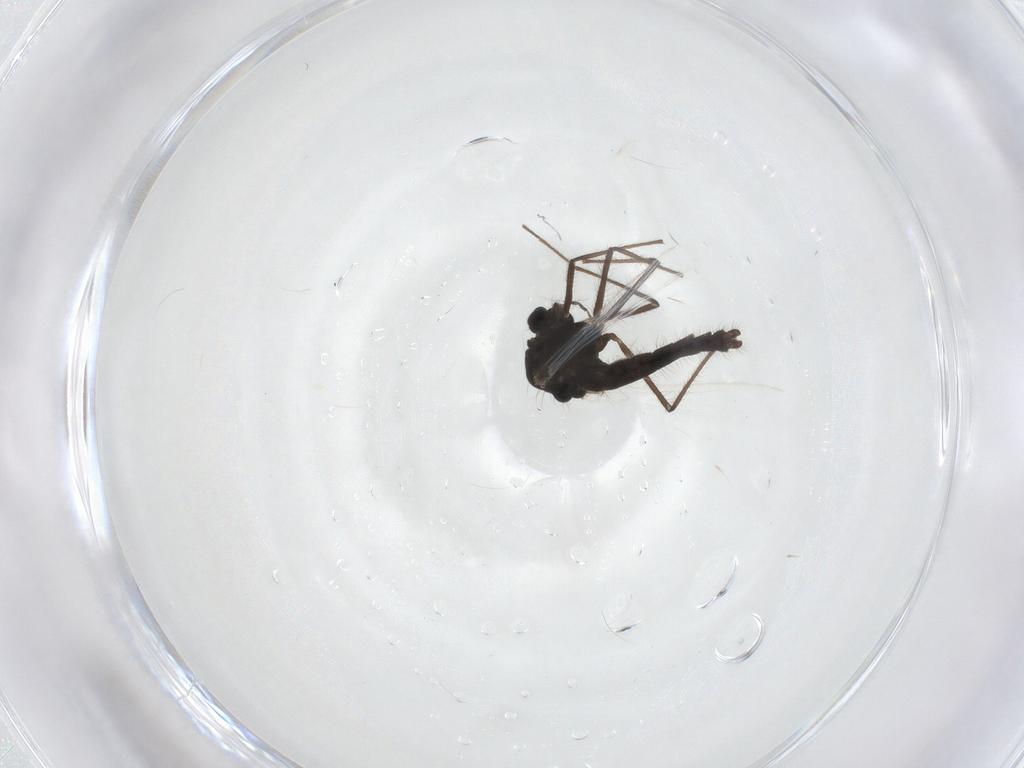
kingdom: Animalia
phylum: Arthropoda
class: Insecta
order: Diptera
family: Chironomidae
